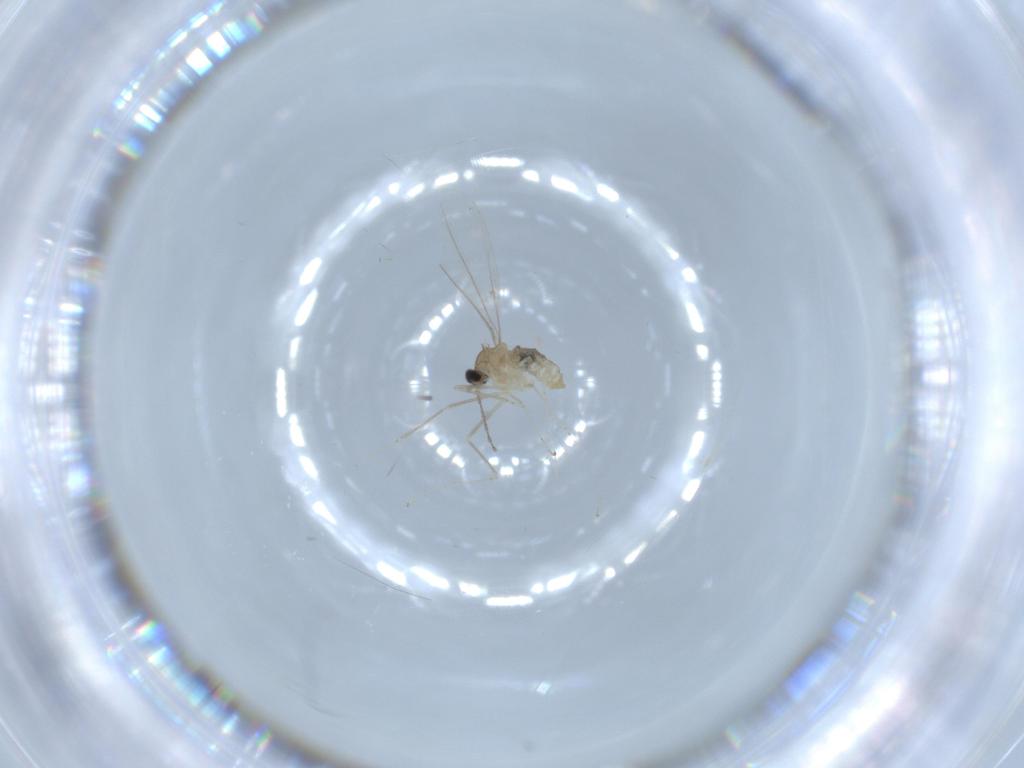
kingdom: Animalia
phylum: Arthropoda
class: Insecta
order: Diptera
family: Cecidomyiidae
